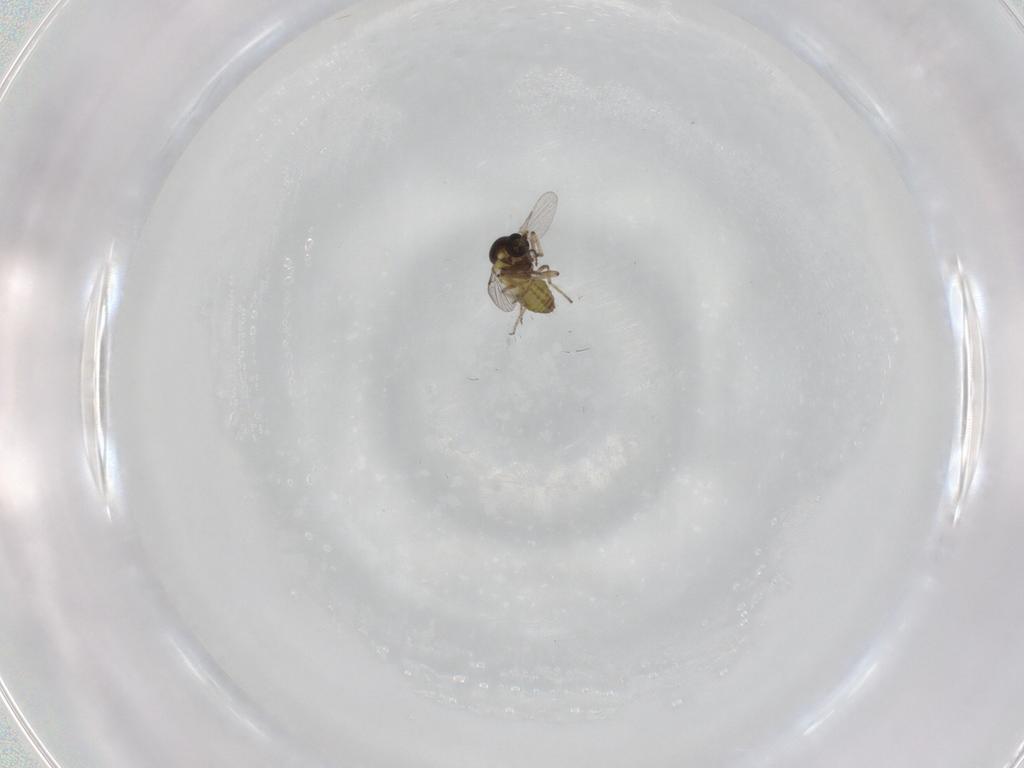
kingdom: Animalia
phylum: Arthropoda
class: Insecta
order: Diptera
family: Ceratopogonidae
